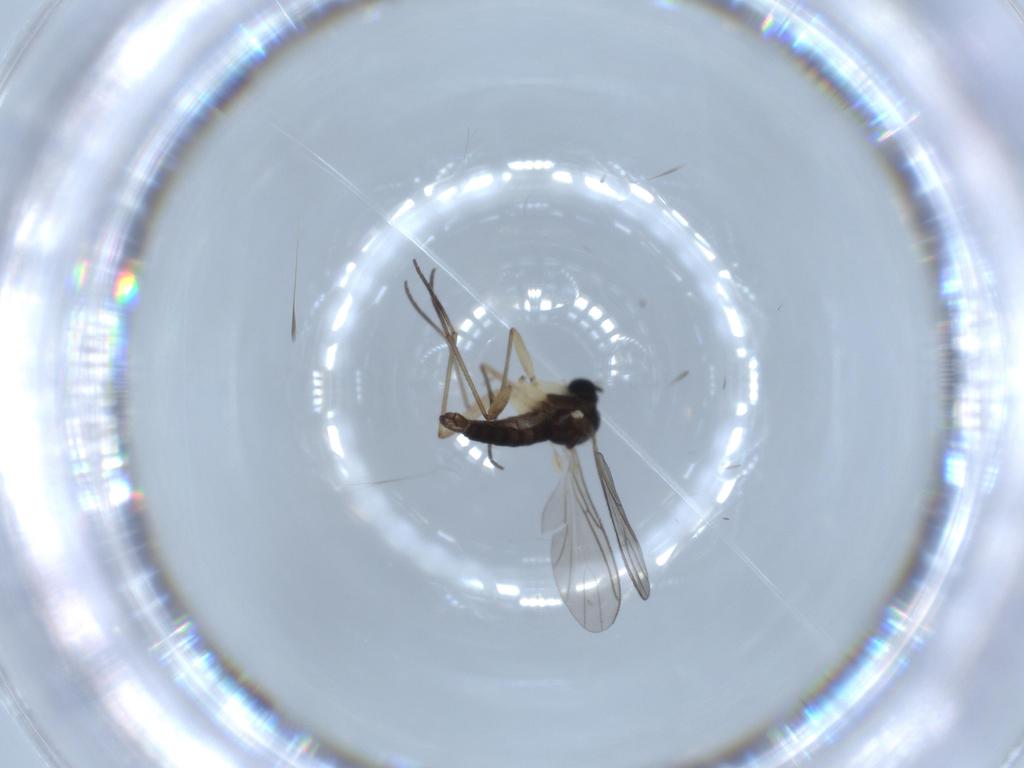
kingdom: Animalia
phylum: Arthropoda
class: Insecta
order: Diptera
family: Sciaridae
